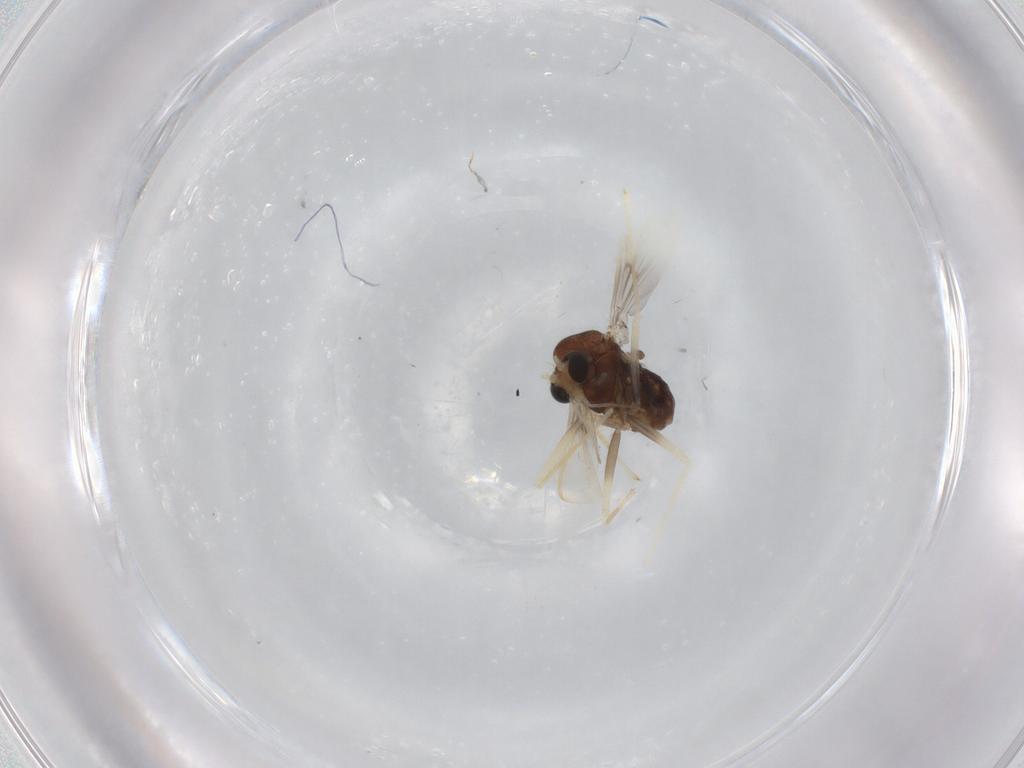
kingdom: Animalia
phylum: Arthropoda
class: Insecta
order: Diptera
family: Chironomidae
